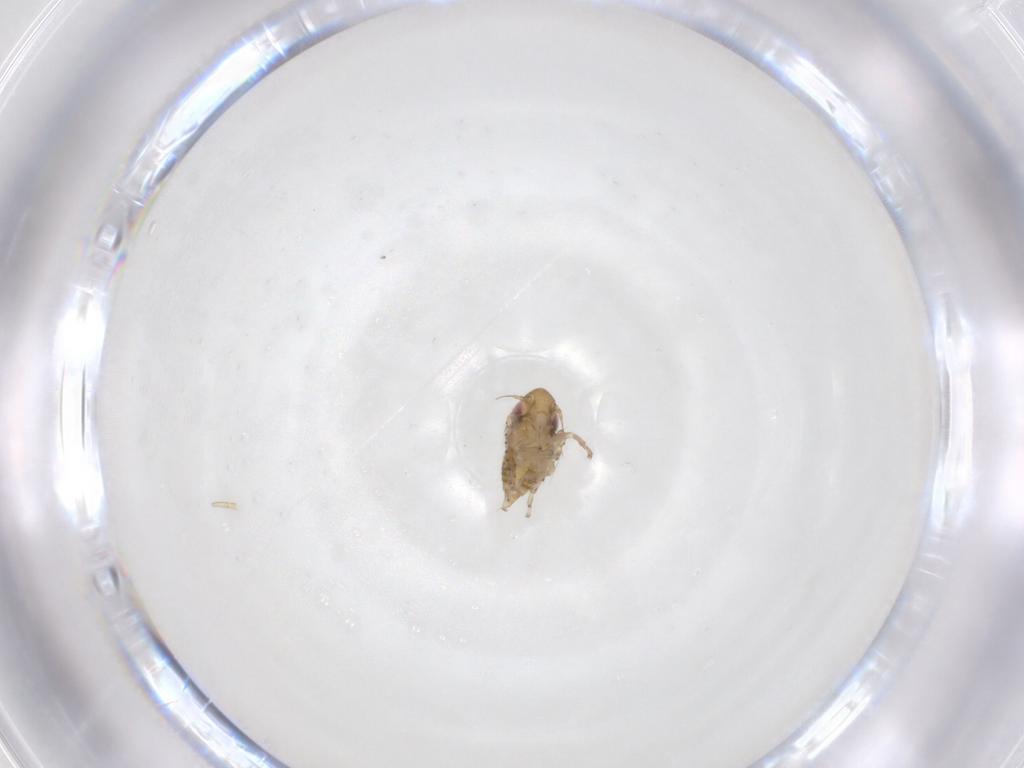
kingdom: Animalia
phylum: Arthropoda
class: Insecta
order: Hemiptera
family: Cicadellidae
